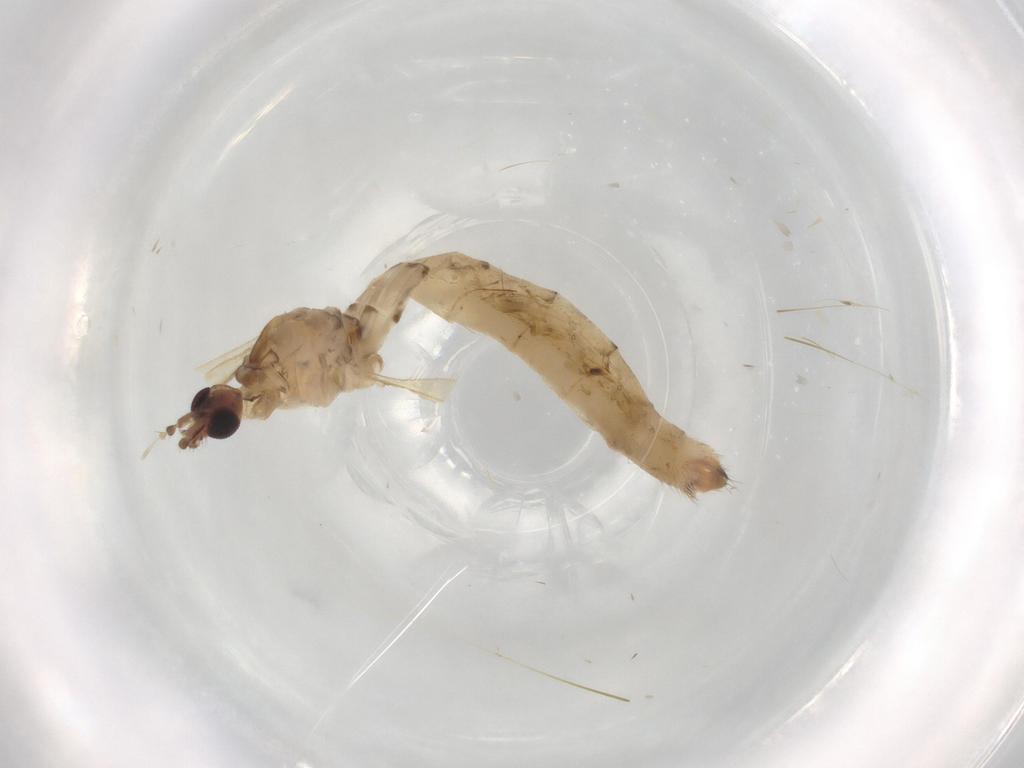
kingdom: Animalia
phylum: Arthropoda
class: Insecta
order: Diptera
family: Limoniidae
